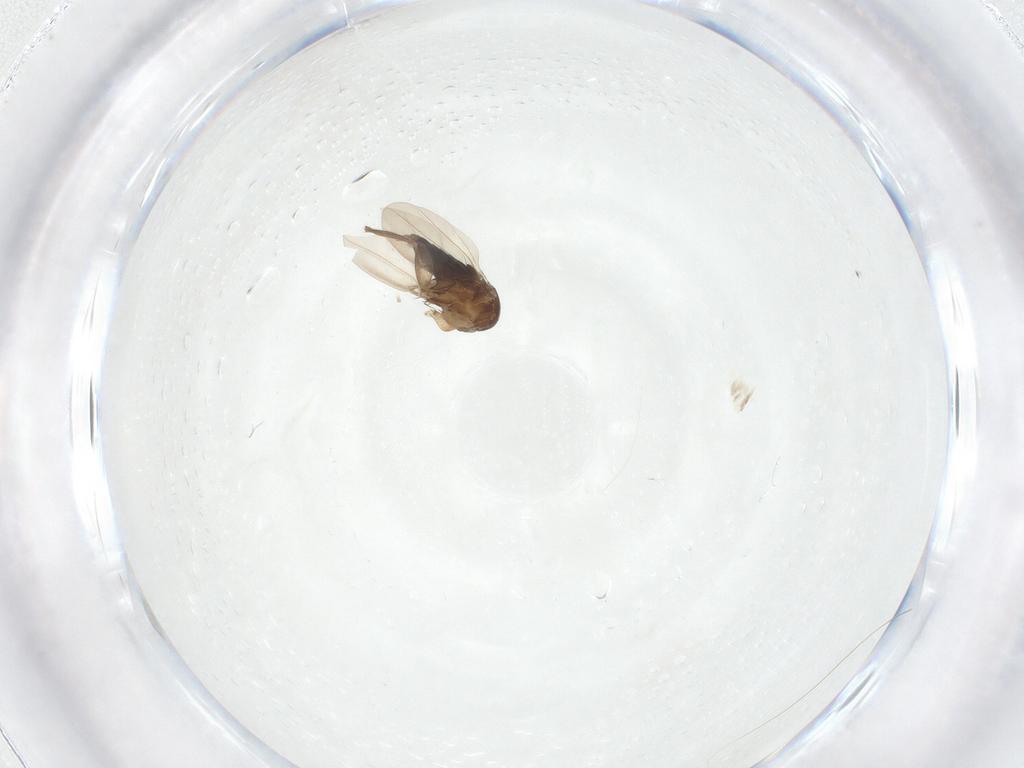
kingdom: Animalia
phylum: Arthropoda
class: Insecta
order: Diptera
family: Phoridae
